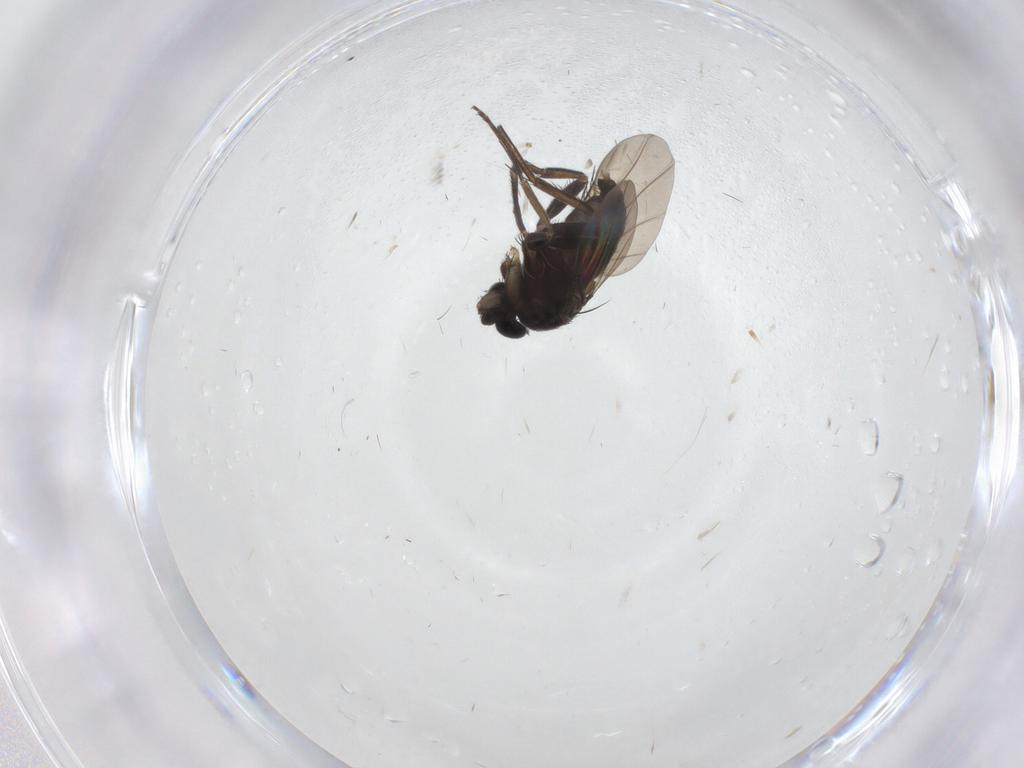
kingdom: Animalia
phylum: Arthropoda
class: Insecta
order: Diptera
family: Phoridae
